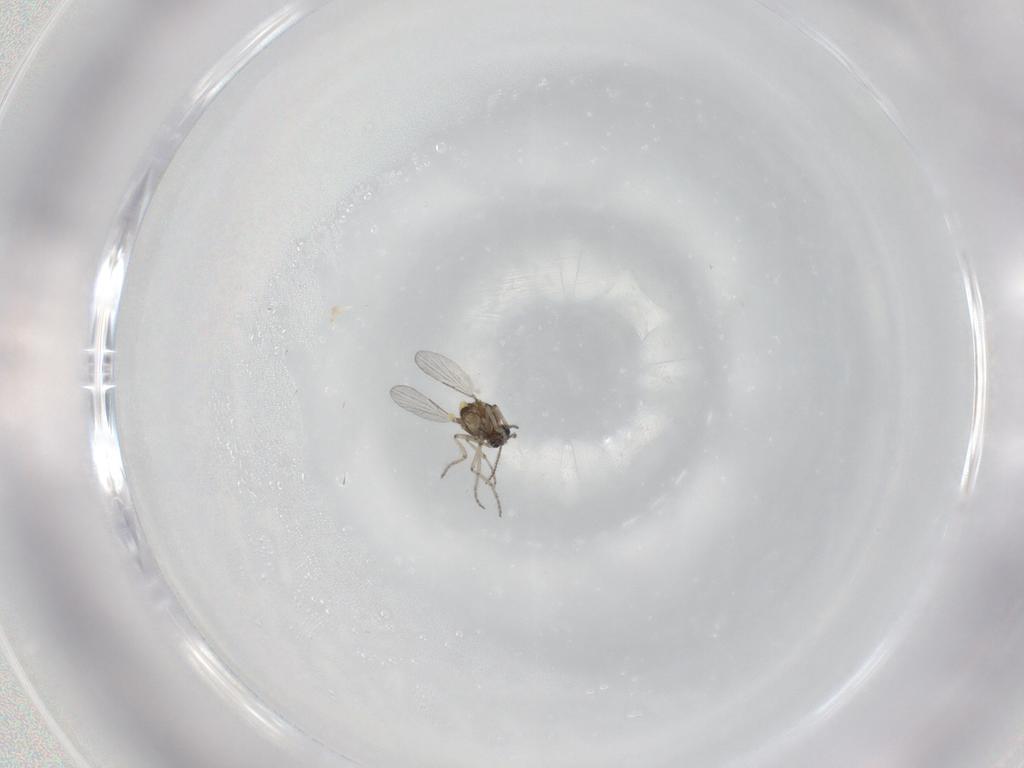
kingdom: Animalia
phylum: Arthropoda
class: Insecta
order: Diptera
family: Limoniidae
